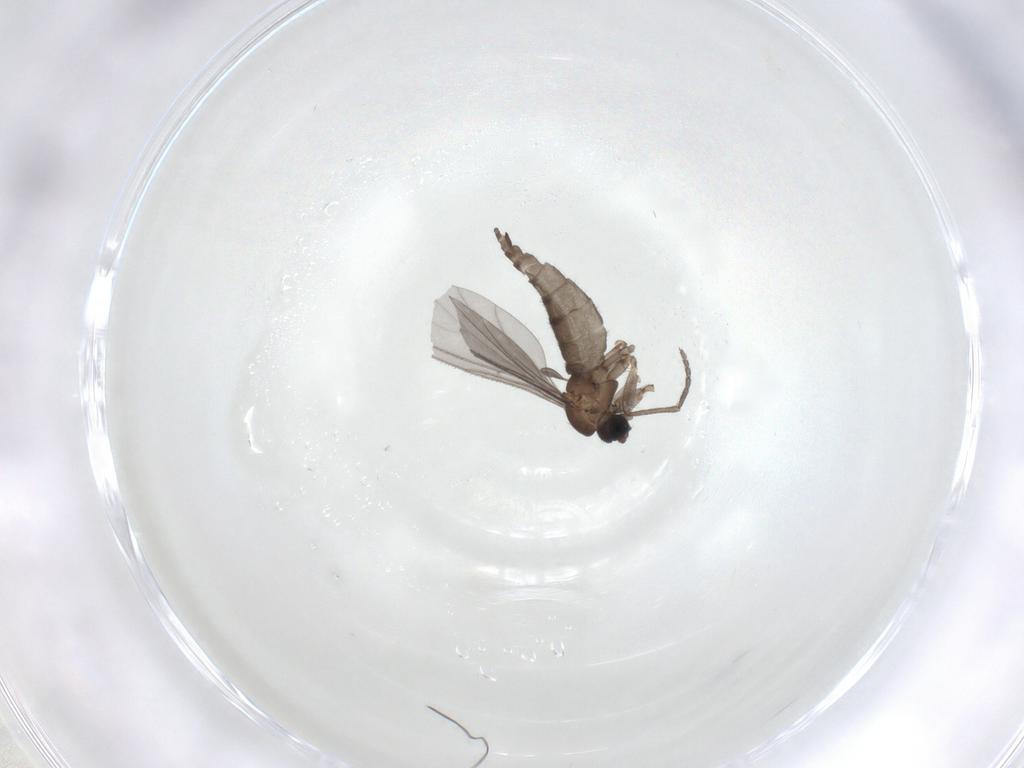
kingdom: Animalia
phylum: Arthropoda
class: Insecta
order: Diptera
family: Sciaridae
